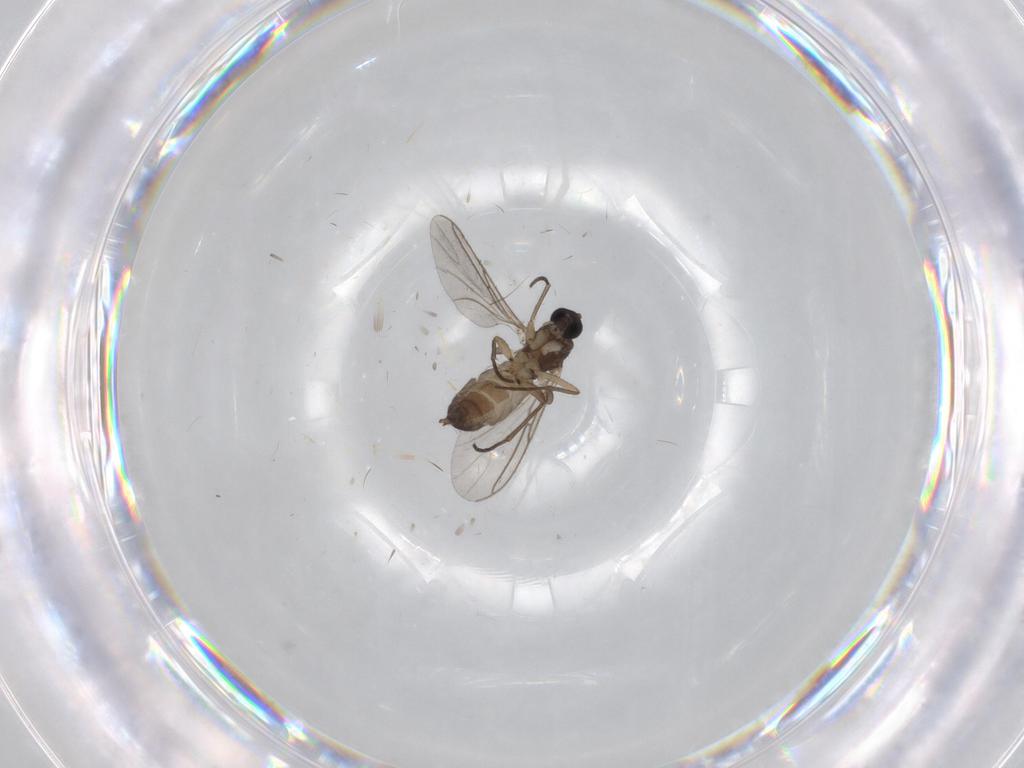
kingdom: Animalia
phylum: Arthropoda
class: Insecta
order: Diptera
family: Sciaridae
